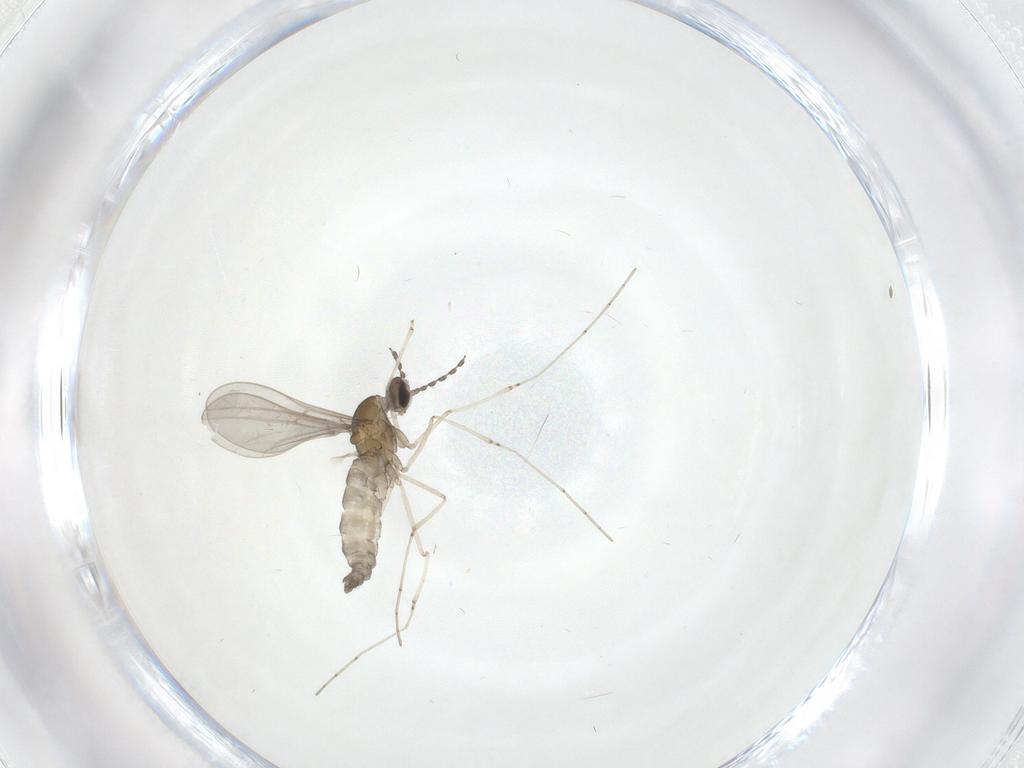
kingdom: Animalia
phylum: Arthropoda
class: Insecta
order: Diptera
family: Cecidomyiidae
